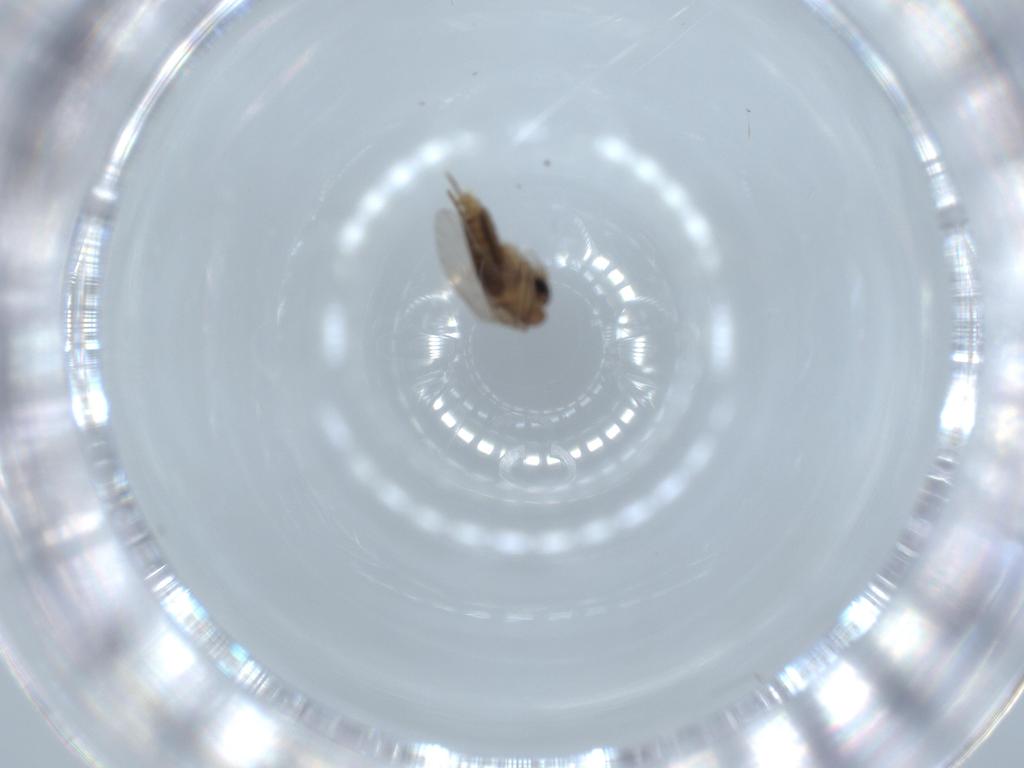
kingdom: Animalia
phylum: Arthropoda
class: Insecta
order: Diptera
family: Cecidomyiidae
